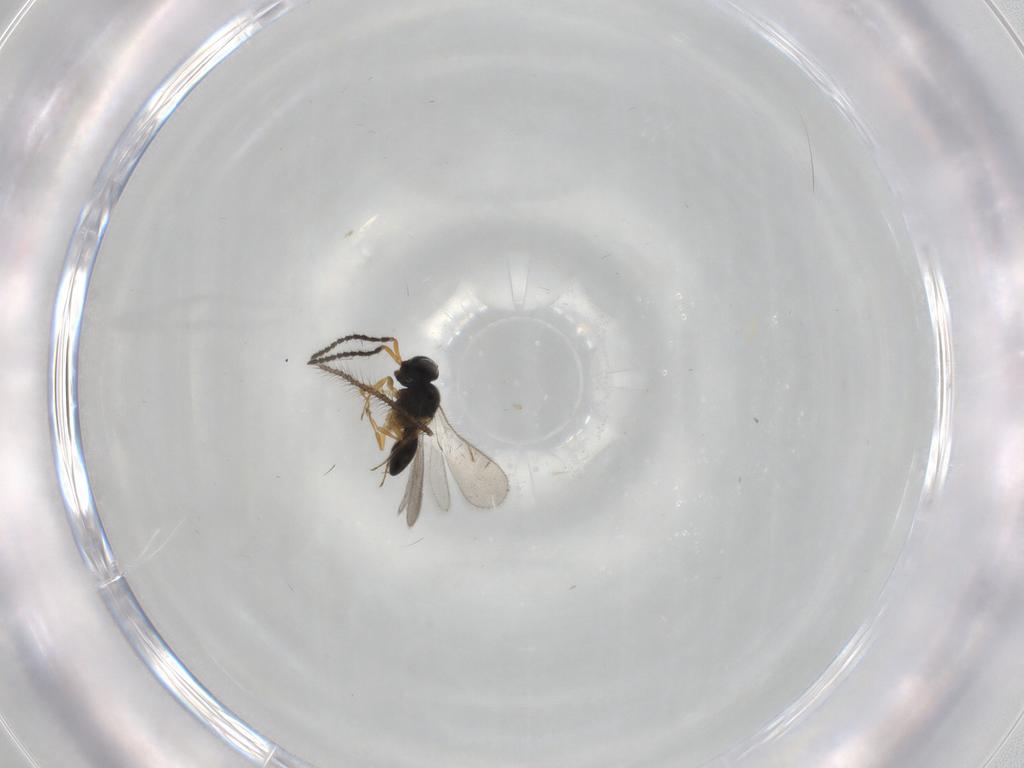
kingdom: Animalia
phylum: Arthropoda
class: Insecta
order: Hymenoptera
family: Scelionidae
